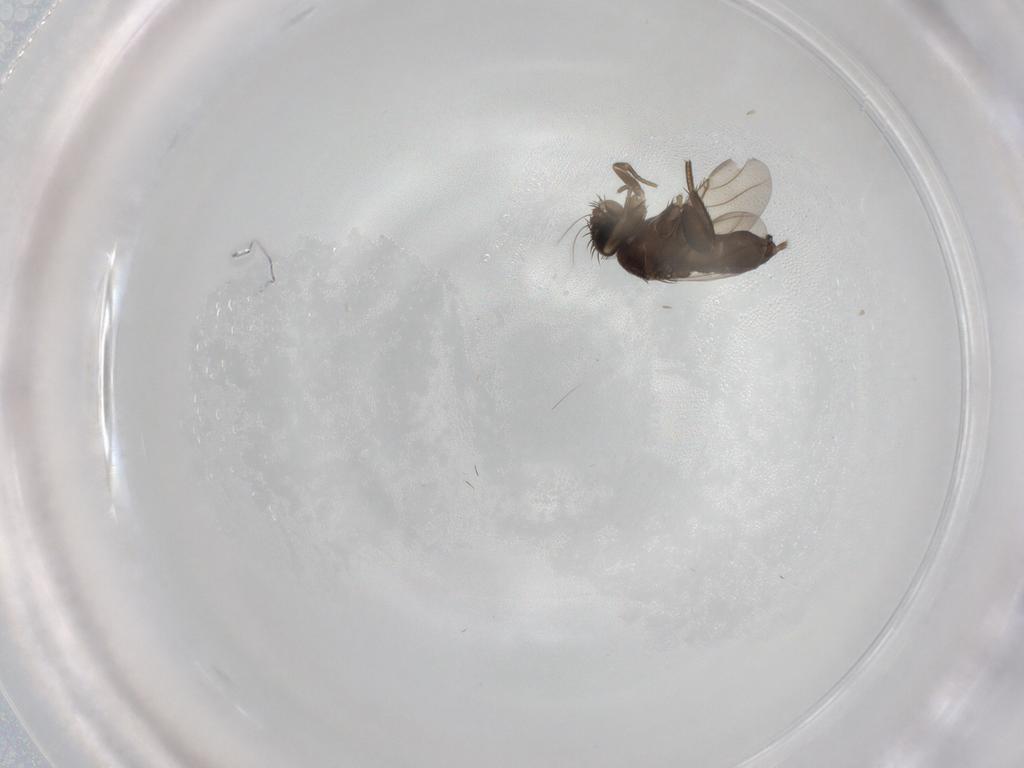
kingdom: Animalia
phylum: Arthropoda
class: Insecta
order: Diptera
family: Phoridae
